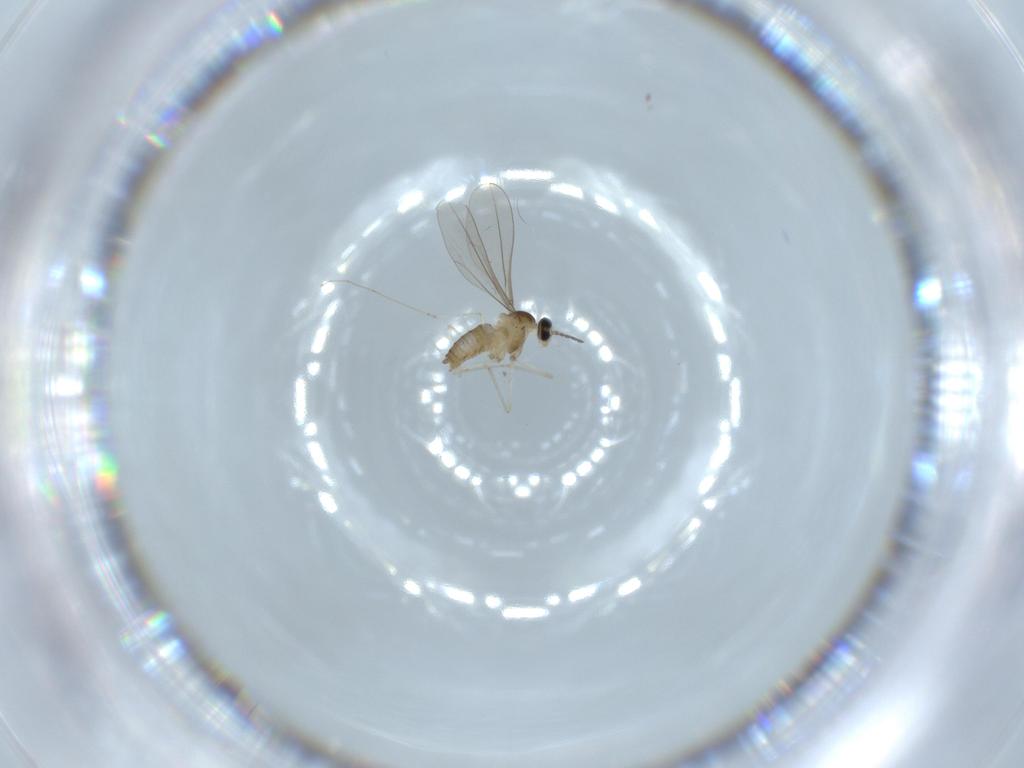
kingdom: Animalia
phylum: Arthropoda
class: Insecta
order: Diptera
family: Cecidomyiidae
